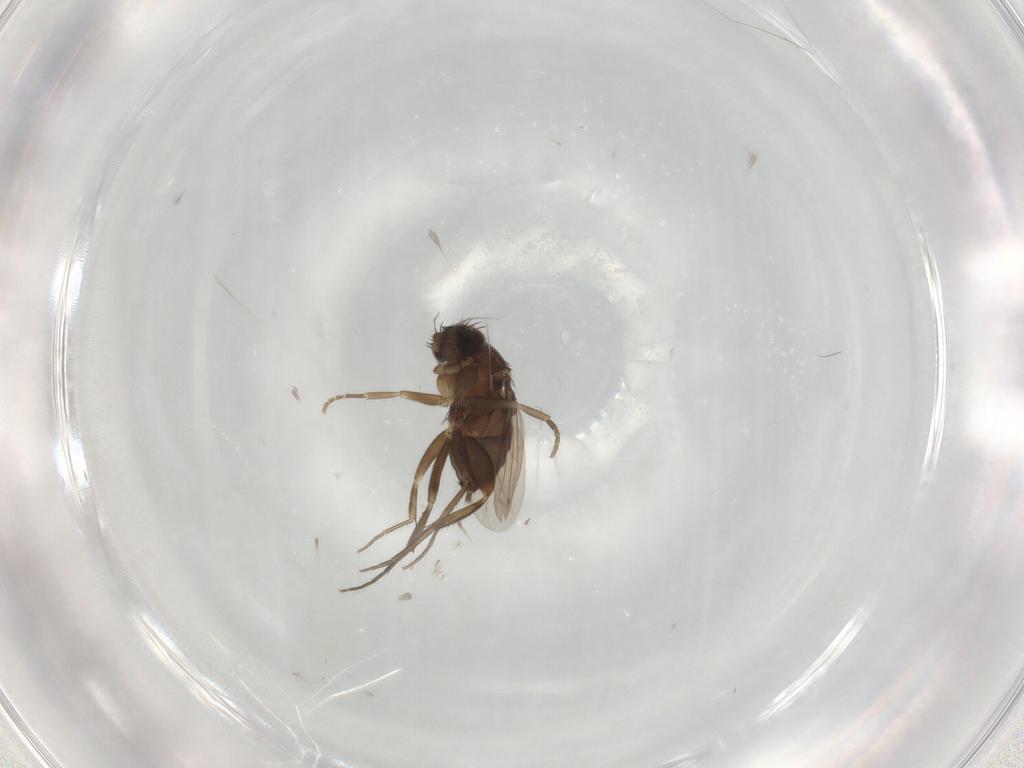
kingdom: Animalia
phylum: Arthropoda
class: Insecta
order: Diptera
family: Phoridae
